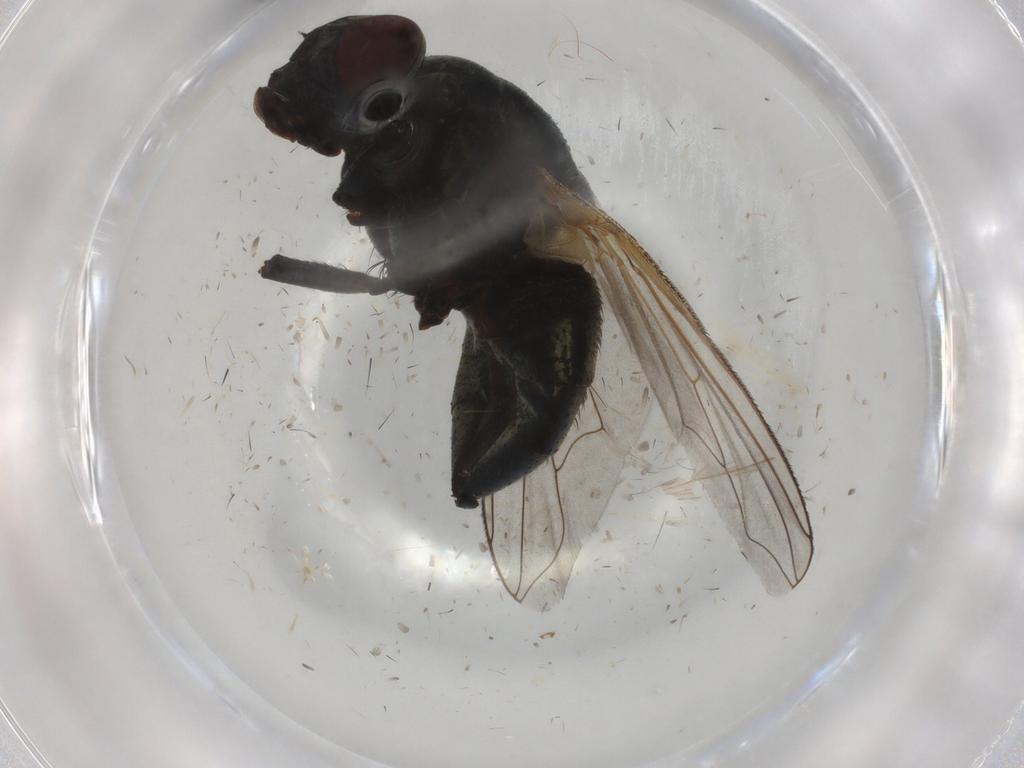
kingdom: Animalia
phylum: Arthropoda
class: Insecta
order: Diptera
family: Muscidae
